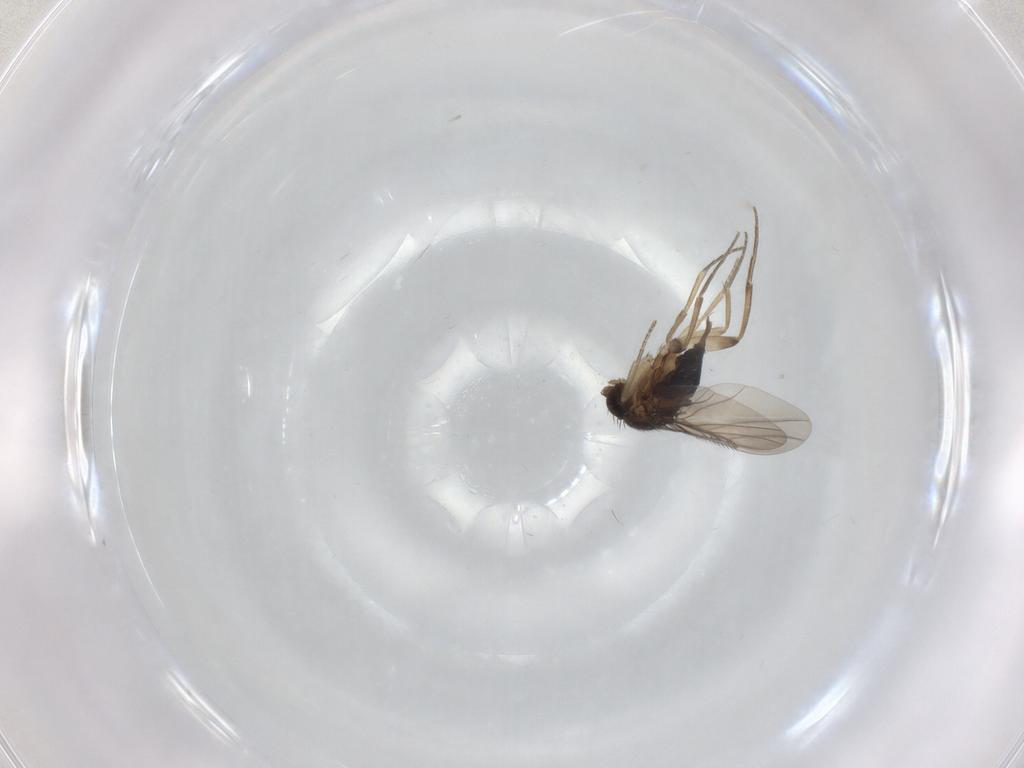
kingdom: Animalia
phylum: Arthropoda
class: Insecta
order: Diptera
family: Phoridae
